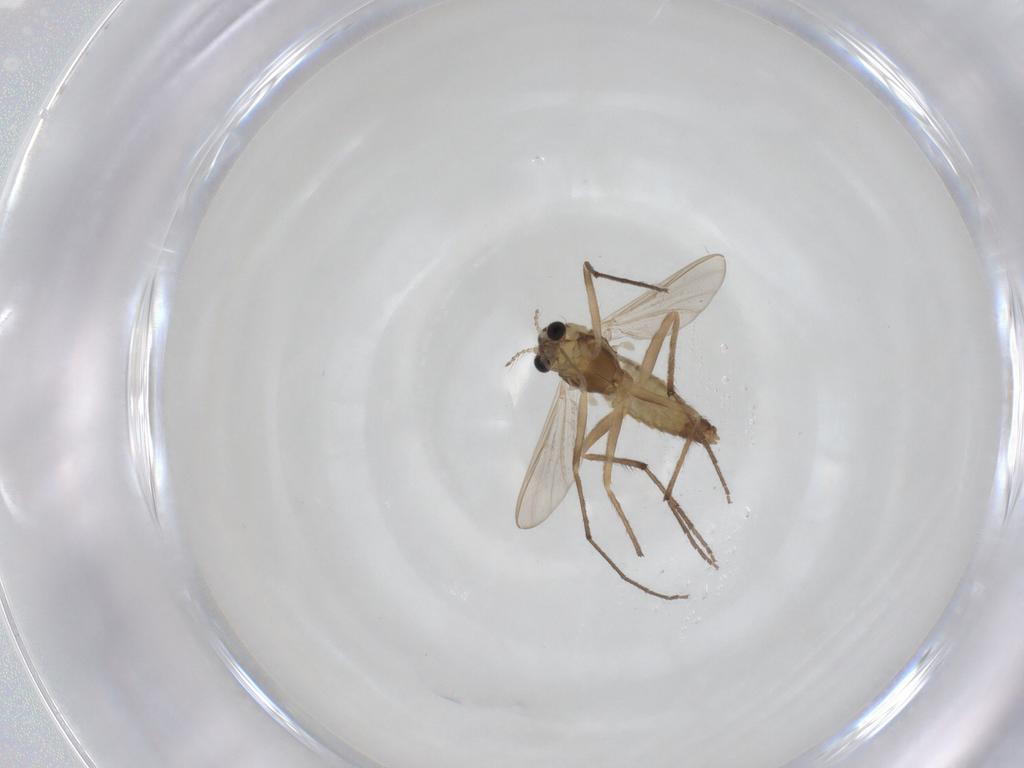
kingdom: Animalia
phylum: Arthropoda
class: Insecta
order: Diptera
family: Chironomidae
